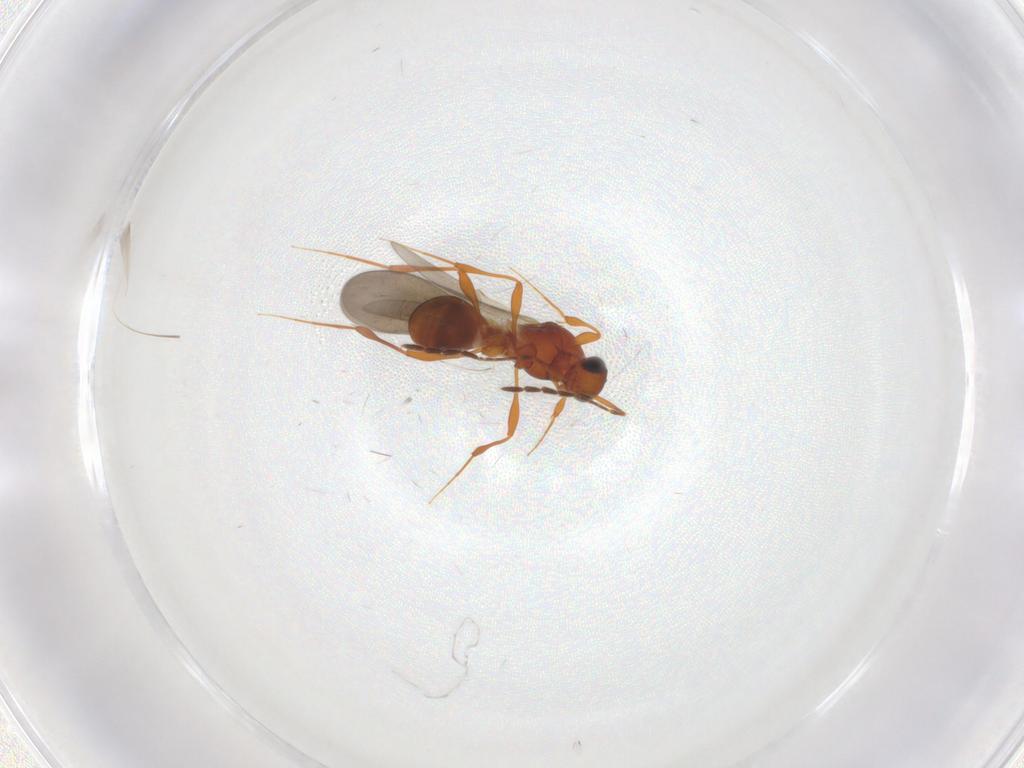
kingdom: Animalia
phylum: Arthropoda
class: Insecta
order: Hymenoptera
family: Platygastridae
